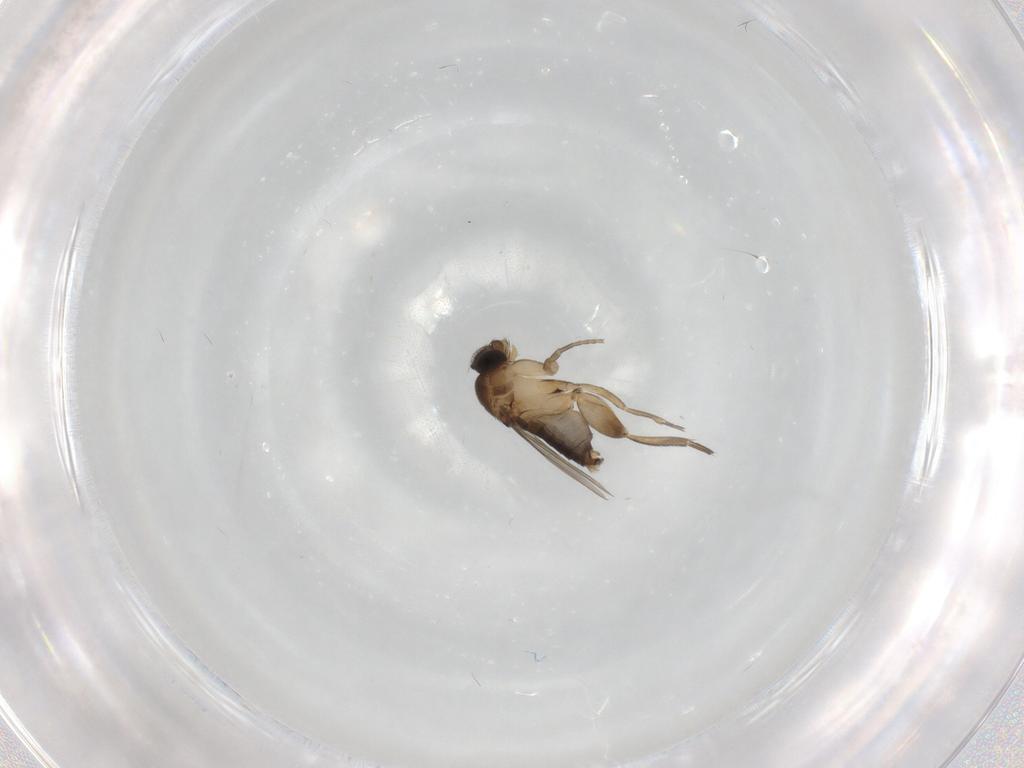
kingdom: Animalia
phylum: Arthropoda
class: Insecta
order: Diptera
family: Phoridae
